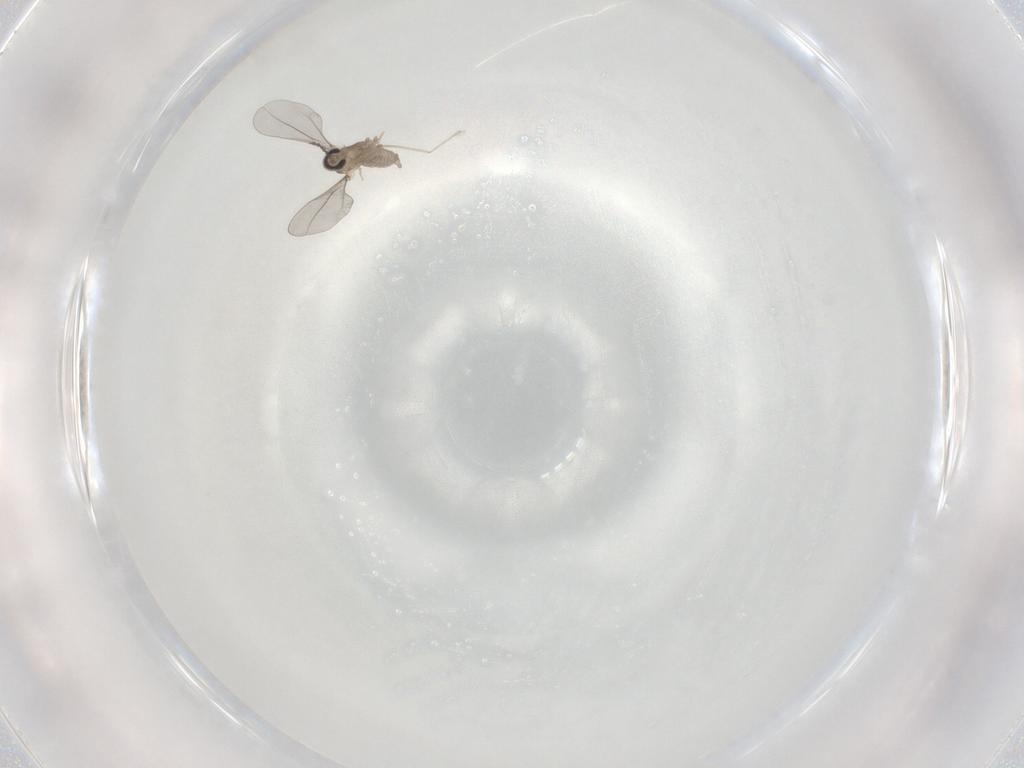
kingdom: Animalia
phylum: Arthropoda
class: Insecta
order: Diptera
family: Cecidomyiidae
